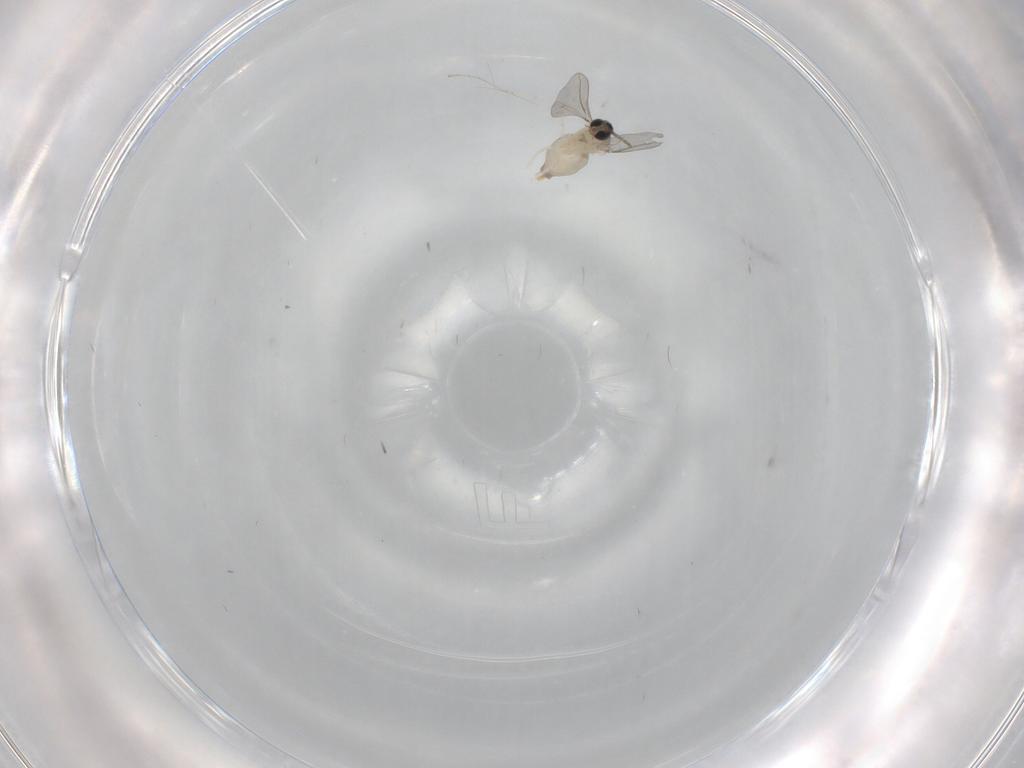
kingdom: Animalia
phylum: Arthropoda
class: Insecta
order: Diptera
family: Cecidomyiidae
